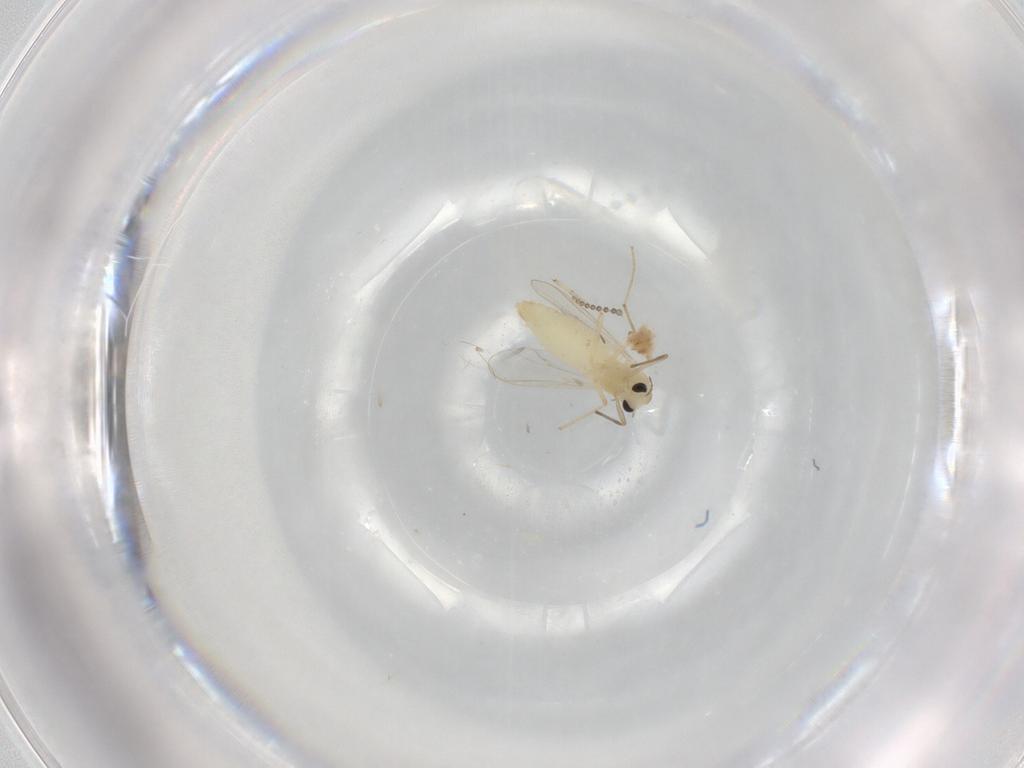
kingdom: Animalia
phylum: Arthropoda
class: Insecta
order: Diptera
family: Chironomidae
